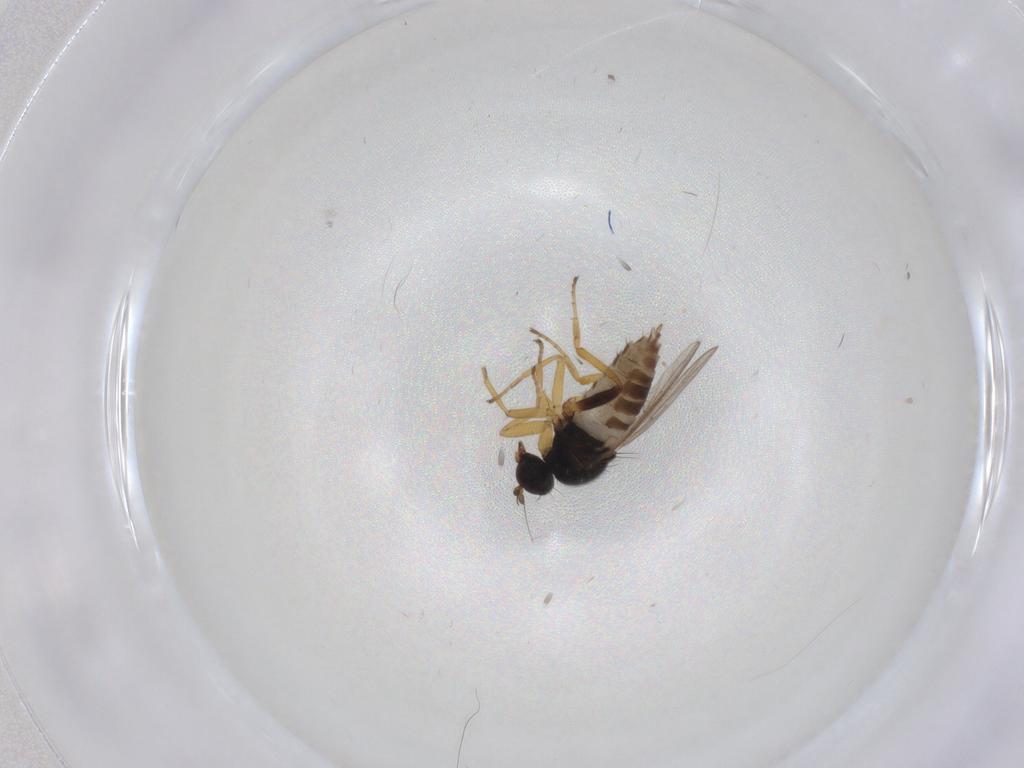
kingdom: Animalia
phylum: Arthropoda
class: Insecta
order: Diptera
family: Hybotidae
